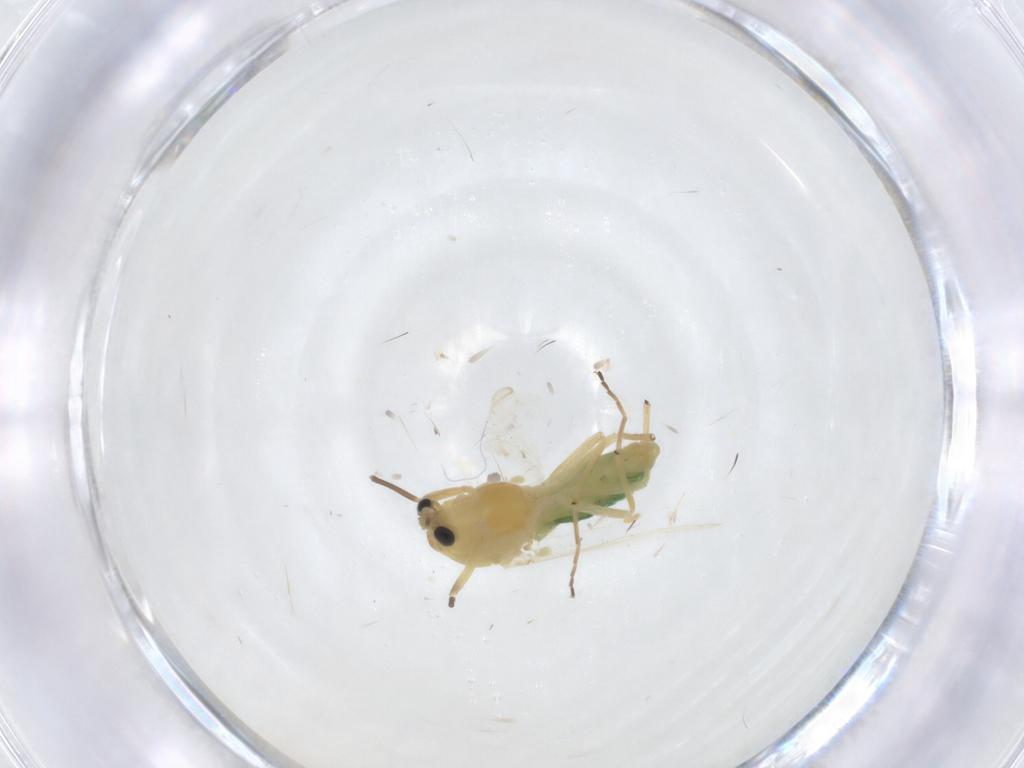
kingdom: Animalia
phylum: Arthropoda
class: Insecta
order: Diptera
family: Chironomidae
